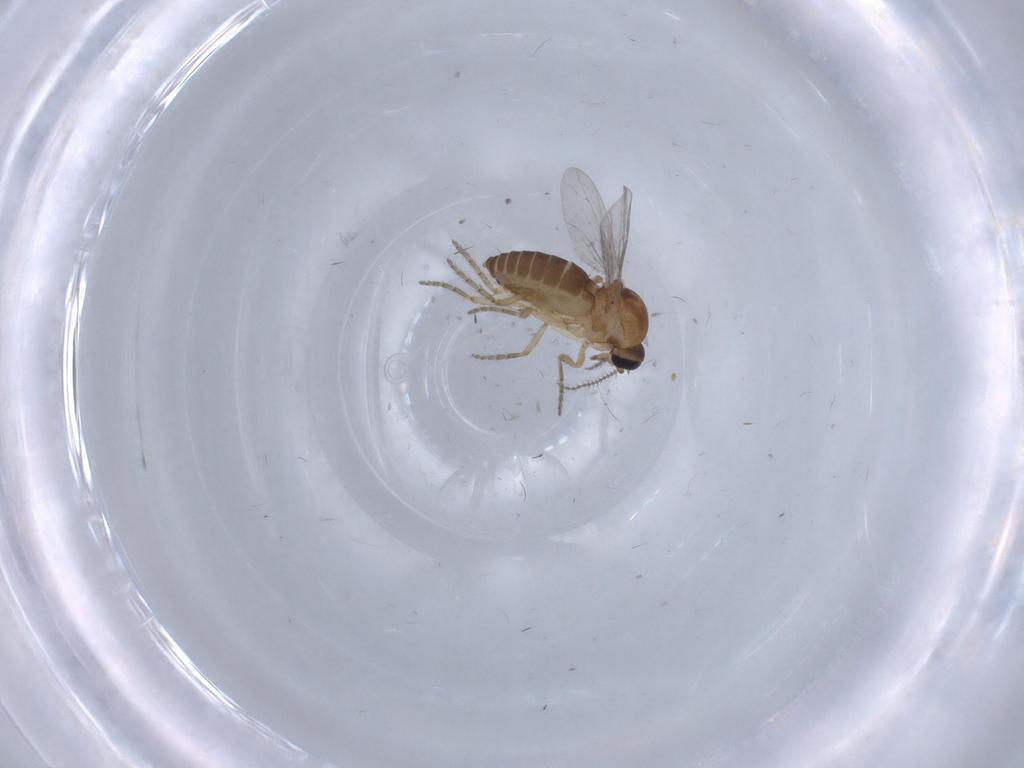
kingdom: Animalia
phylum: Arthropoda
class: Insecta
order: Diptera
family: Ceratopogonidae
